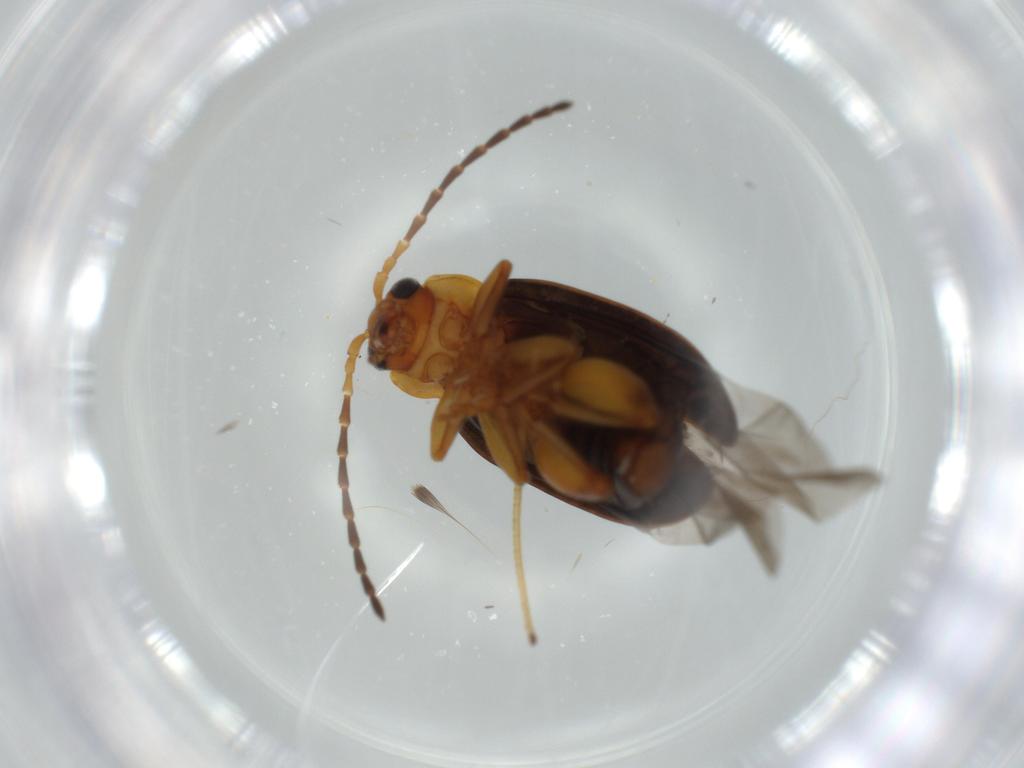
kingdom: Animalia
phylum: Arthropoda
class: Insecta
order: Coleoptera
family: Chrysomelidae
